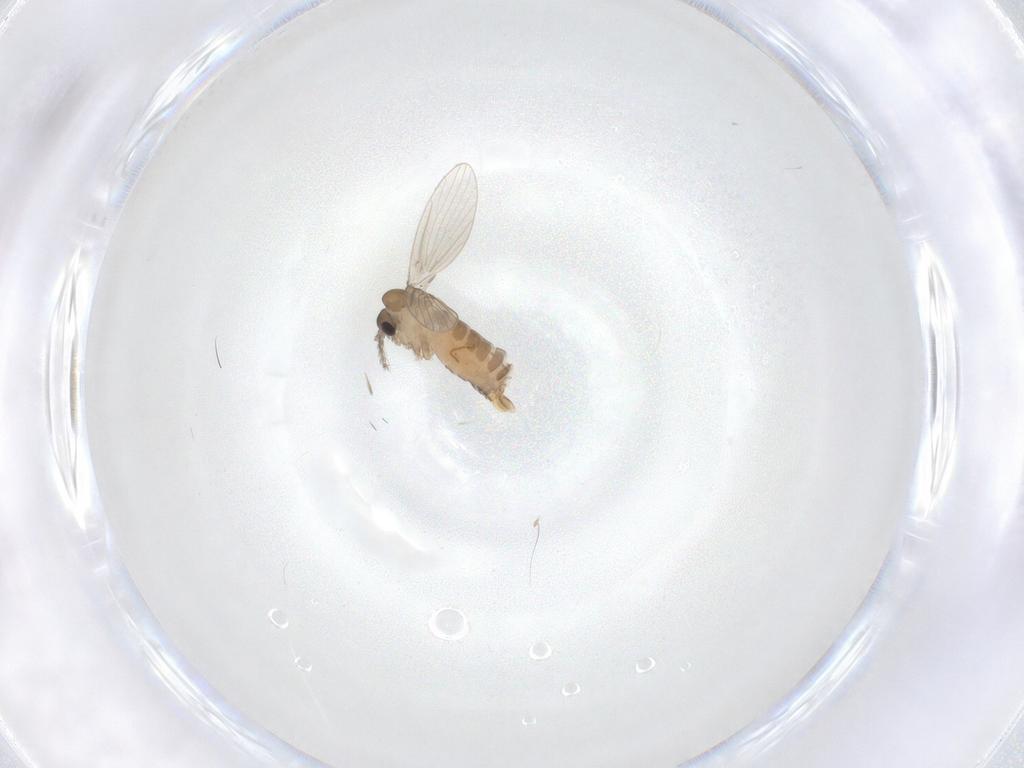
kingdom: Animalia
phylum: Arthropoda
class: Insecta
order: Diptera
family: Psychodidae
